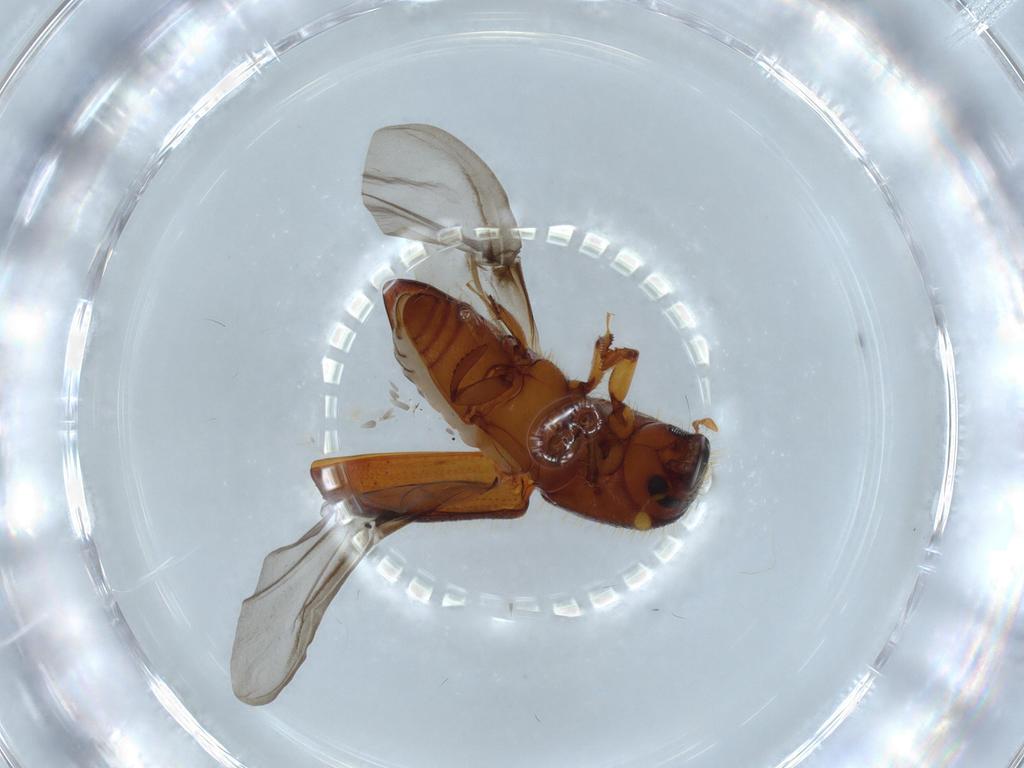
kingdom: Animalia
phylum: Arthropoda
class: Insecta
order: Coleoptera
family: Curculionidae
